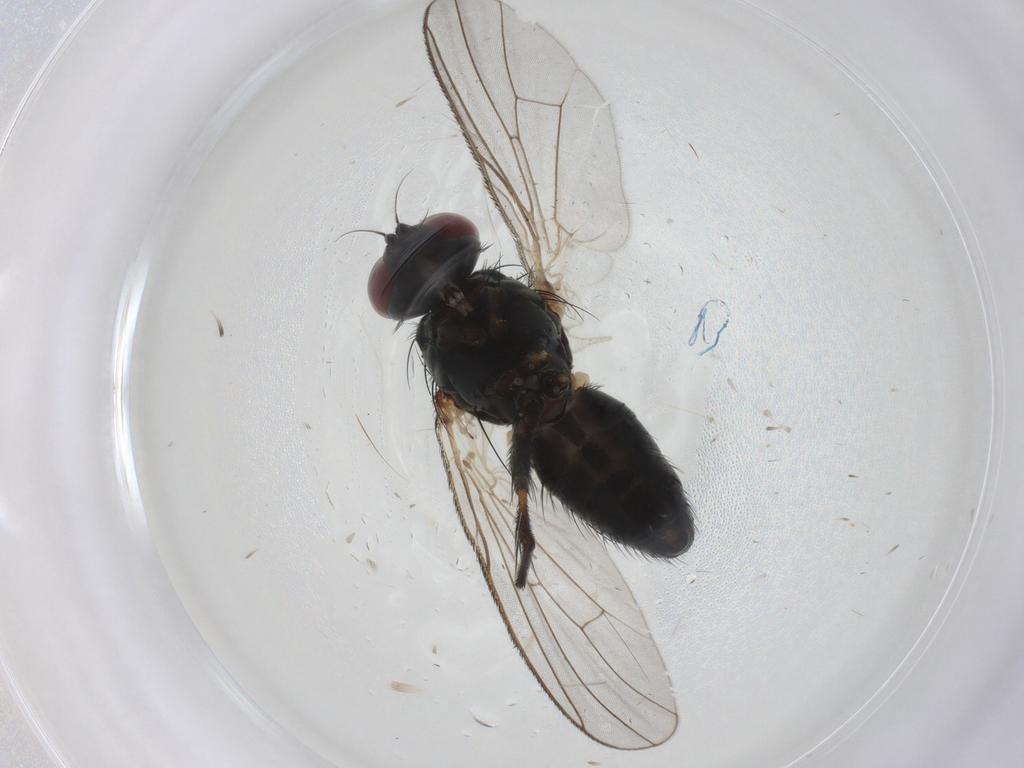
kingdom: Animalia
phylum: Arthropoda
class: Insecta
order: Diptera
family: Muscidae
